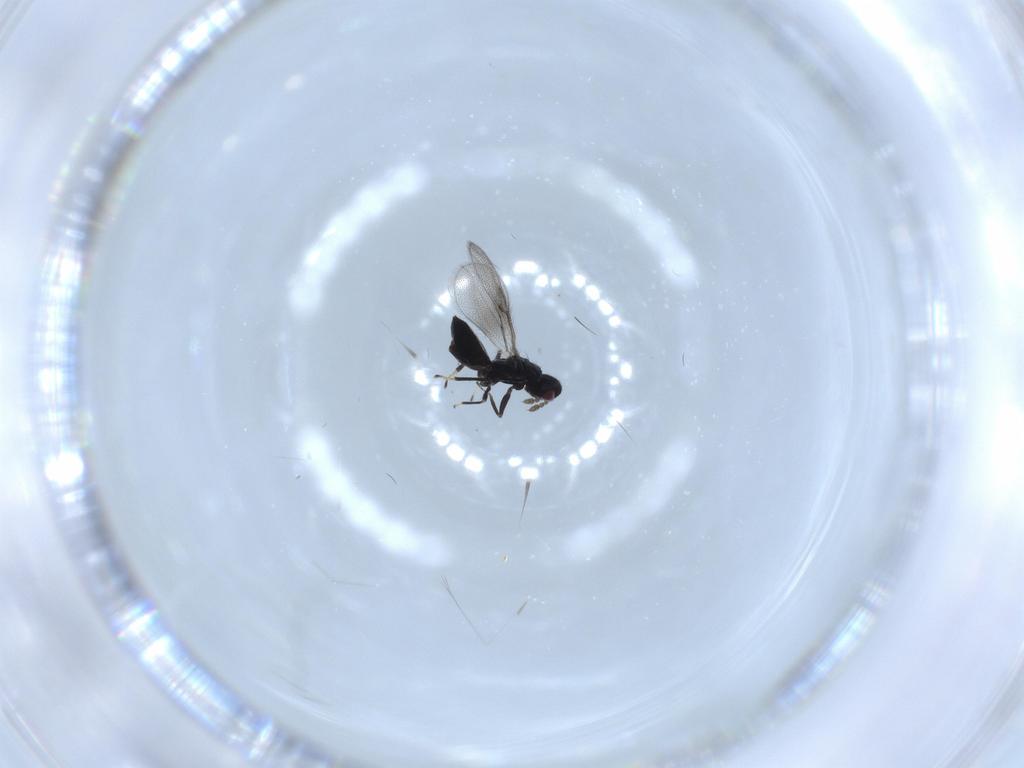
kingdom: Animalia
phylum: Arthropoda
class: Insecta
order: Hymenoptera
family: Eulophidae
